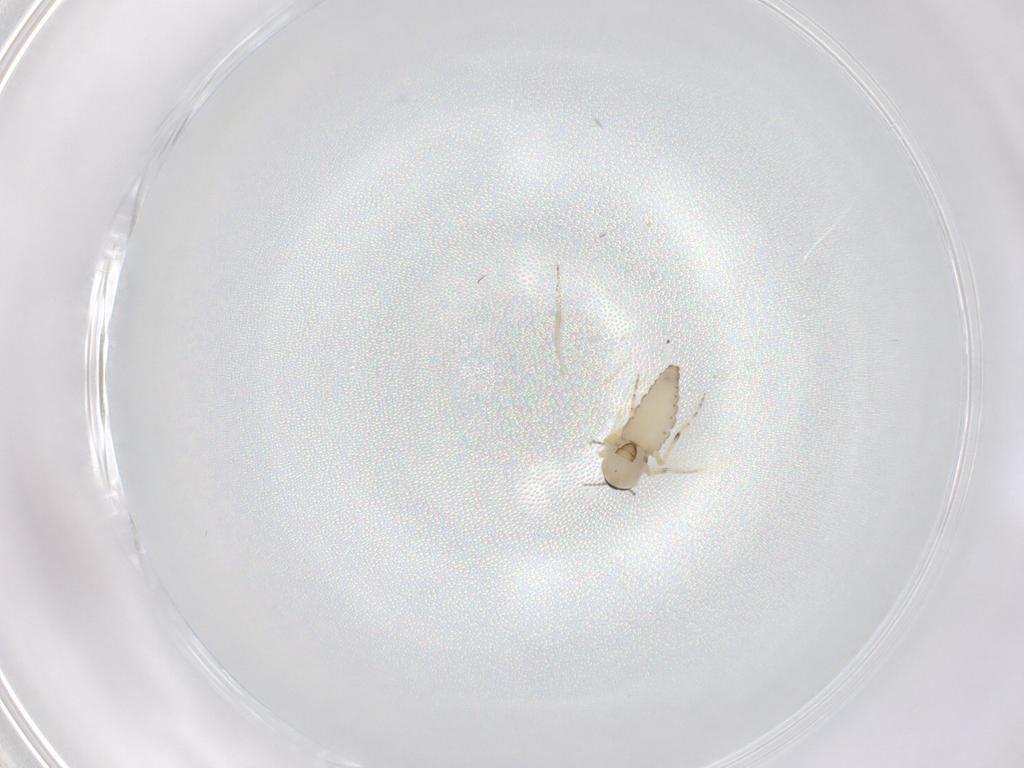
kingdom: Animalia
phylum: Arthropoda
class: Insecta
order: Diptera
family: Ceratopogonidae
